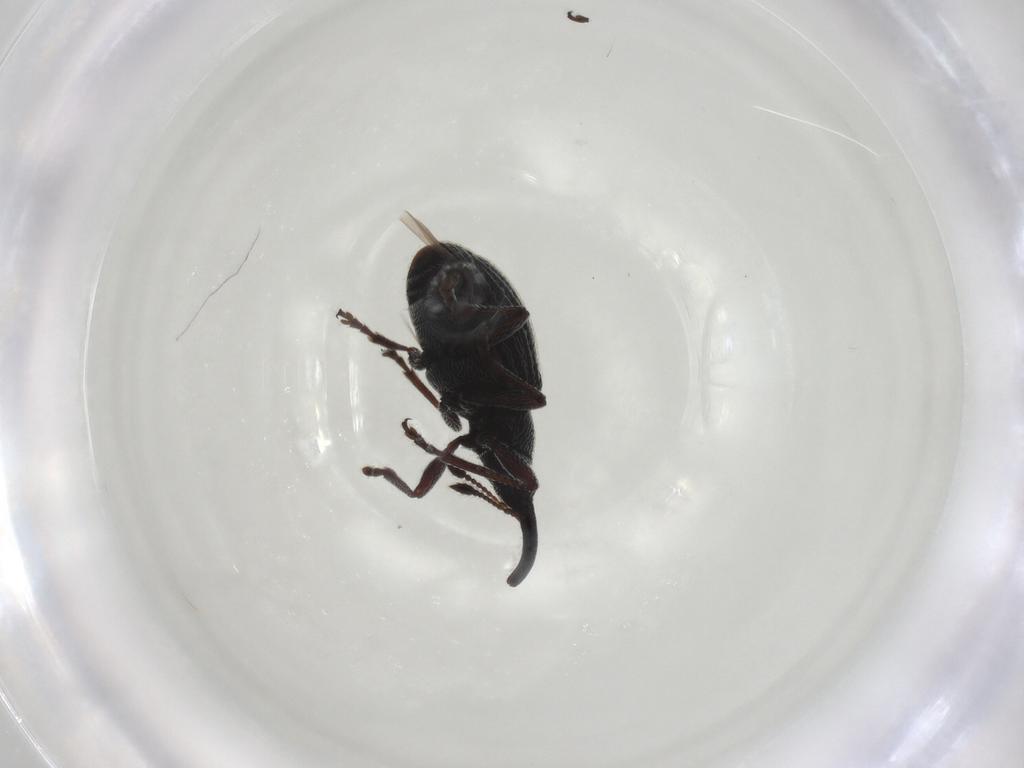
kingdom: Animalia
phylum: Arthropoda
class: Insecta
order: Coleoptera
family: Brentidae
